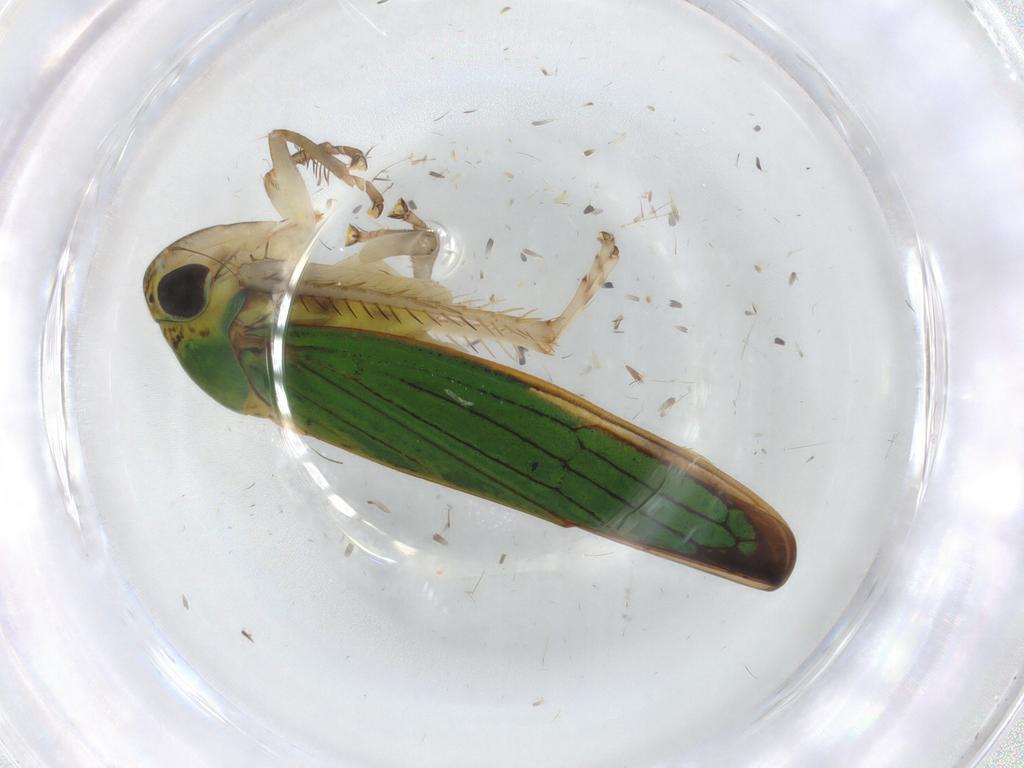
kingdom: Animalia
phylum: Arthropoda
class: Insecta
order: Hemiptera
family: Cicadellidae
